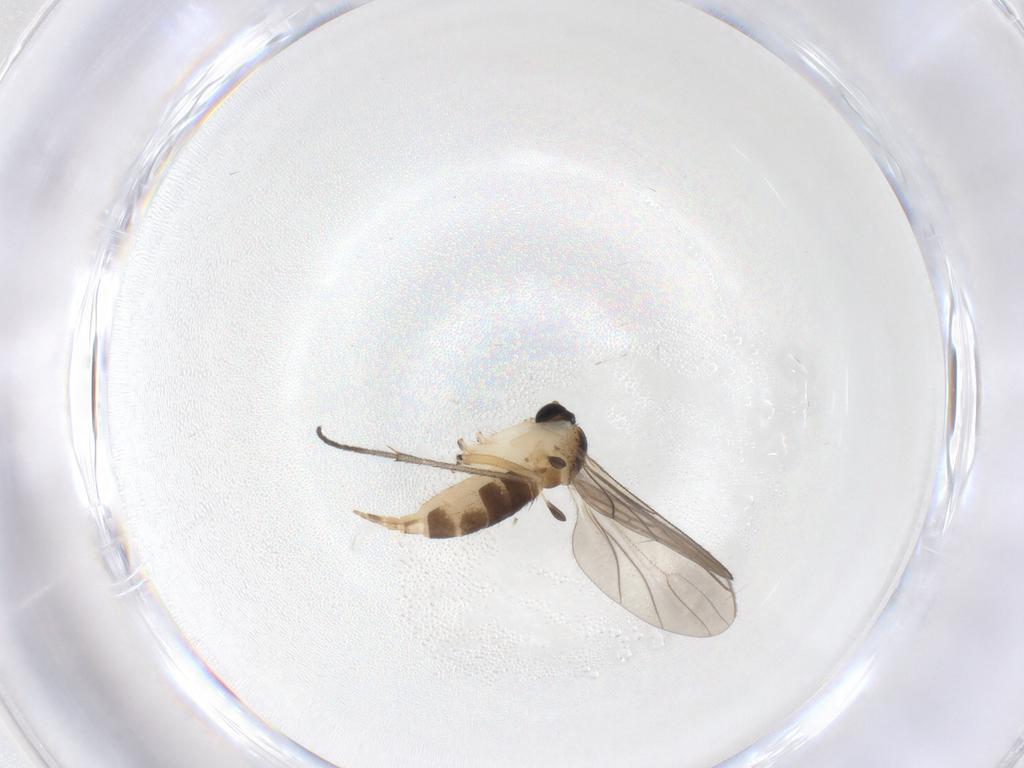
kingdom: Animalia
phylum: Arthropoda
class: Insecta
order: Diptera
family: Sciaridae
